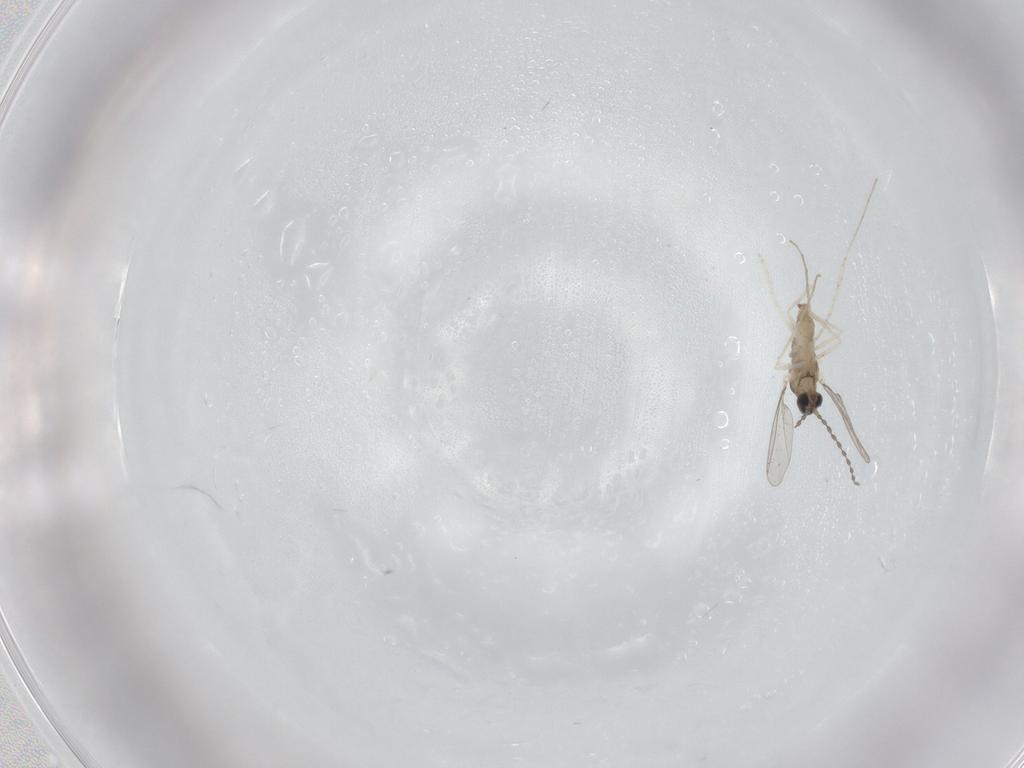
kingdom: Animalia
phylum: Arthropoda
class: Insecta
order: Diptera
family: Cecidomyiidae
